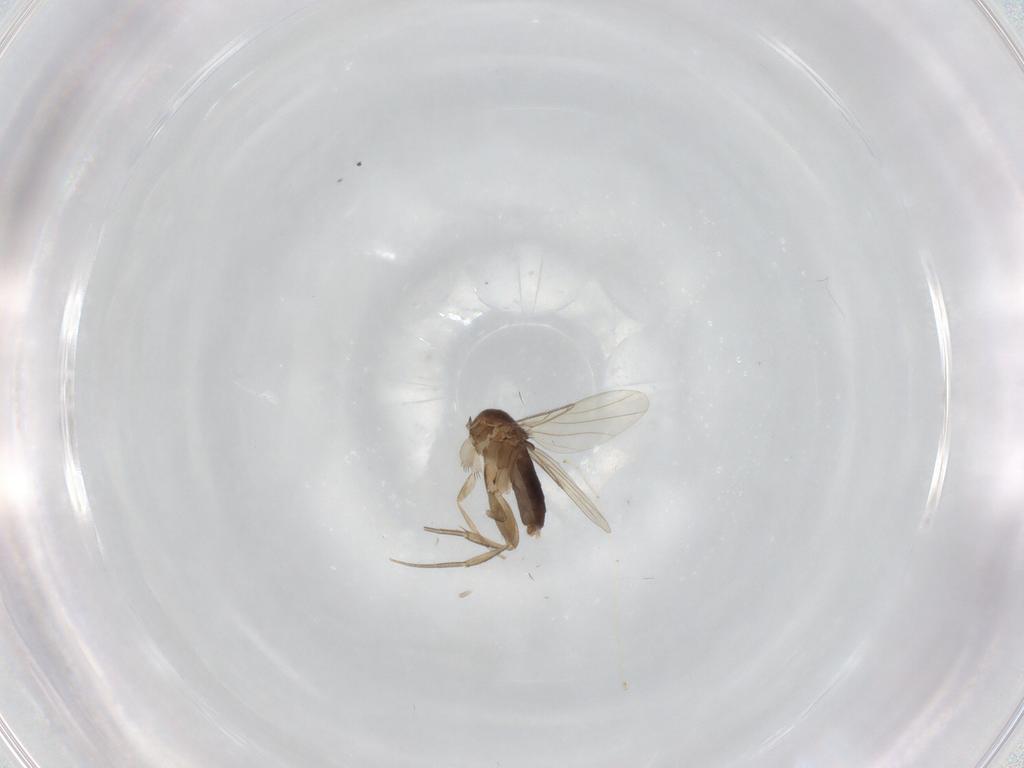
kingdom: Animalia
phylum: Arthropoda
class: Insecta
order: Diptera
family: Phoridae
